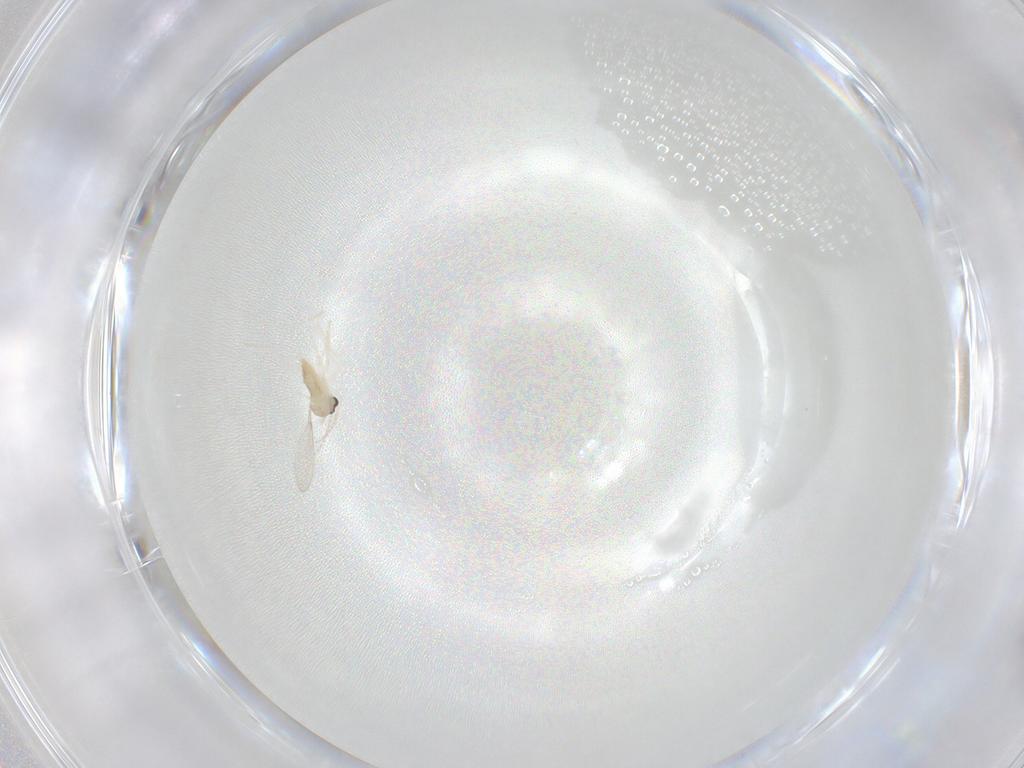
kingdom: Animalia
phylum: Arthropoda
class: Insecta
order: Diptera
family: Cecidomyiidae
